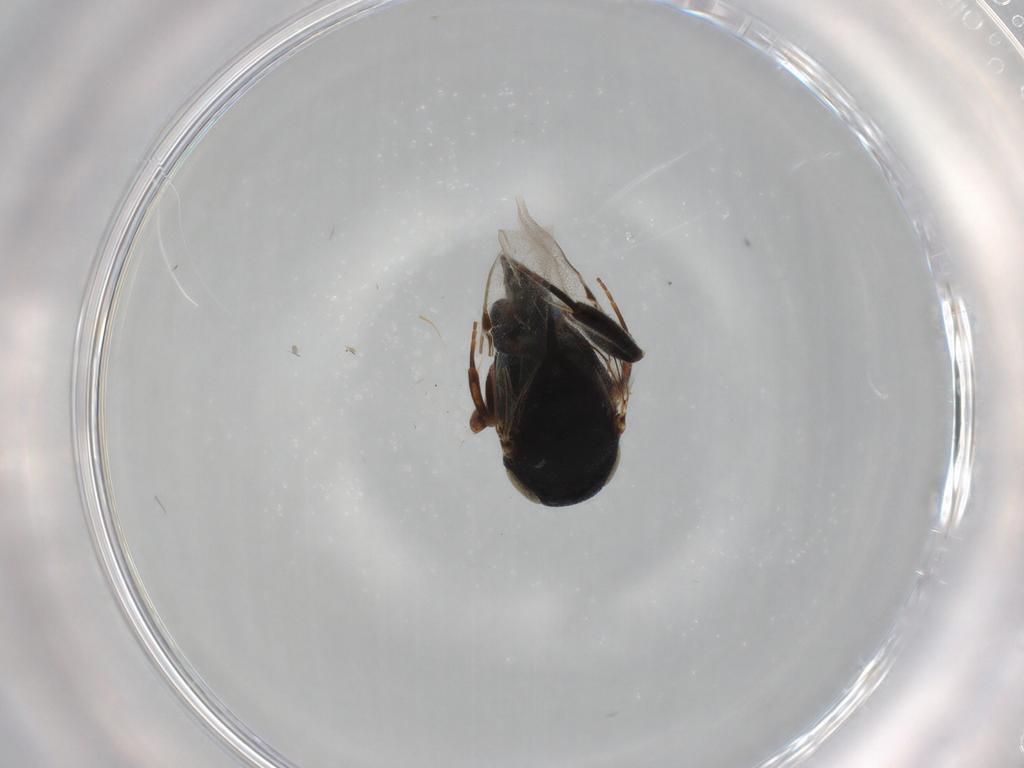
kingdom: Animalia
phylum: Arthropoda
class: Insecta
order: Hymenoptera
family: Evaniidae
